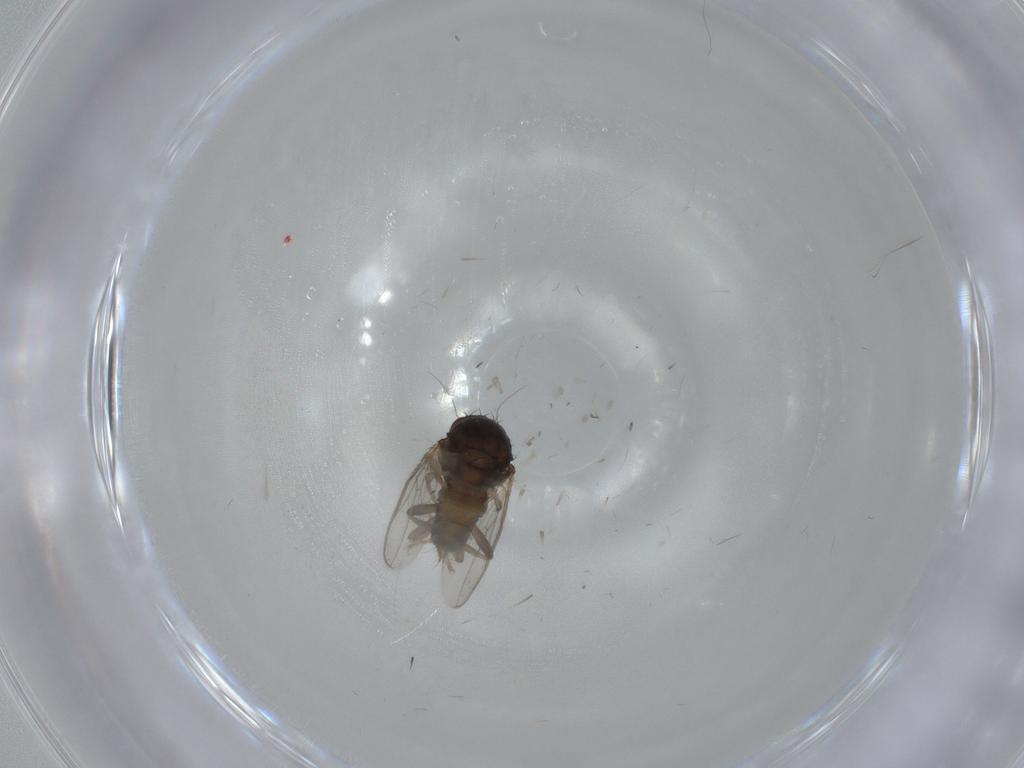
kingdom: Animalia
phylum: Arthropoda
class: Insecta
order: Diptera
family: Sphaeroceridae
